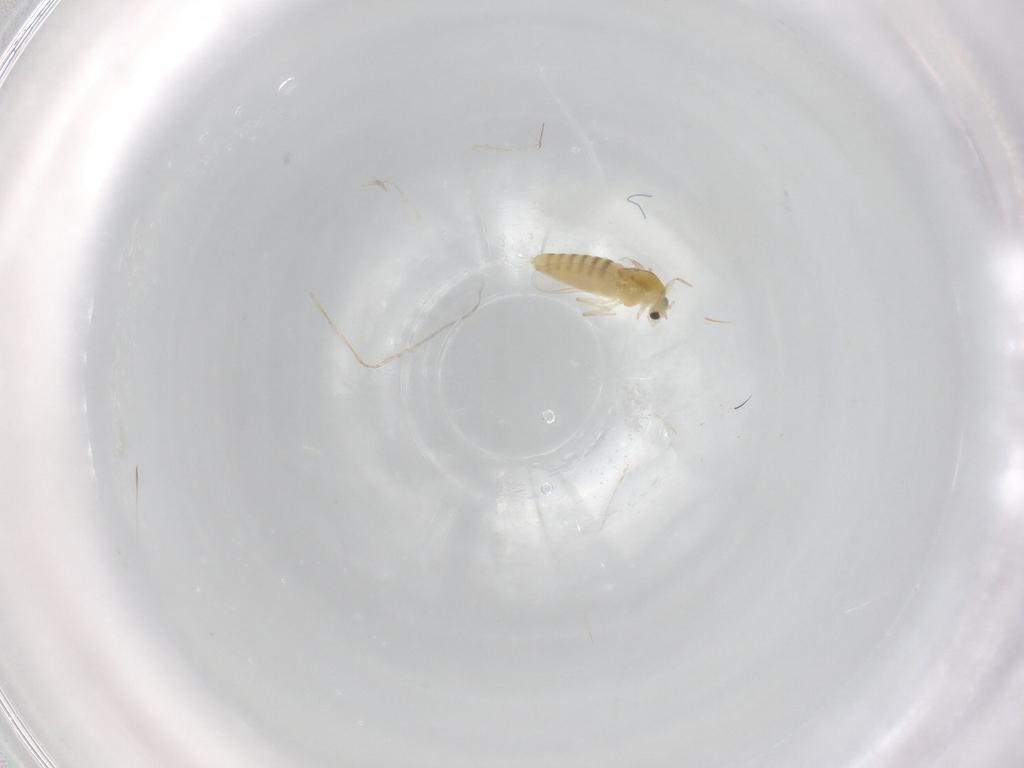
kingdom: Animalia
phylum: Arthropoda
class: Insecta
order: Diptera
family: Chironomidae
